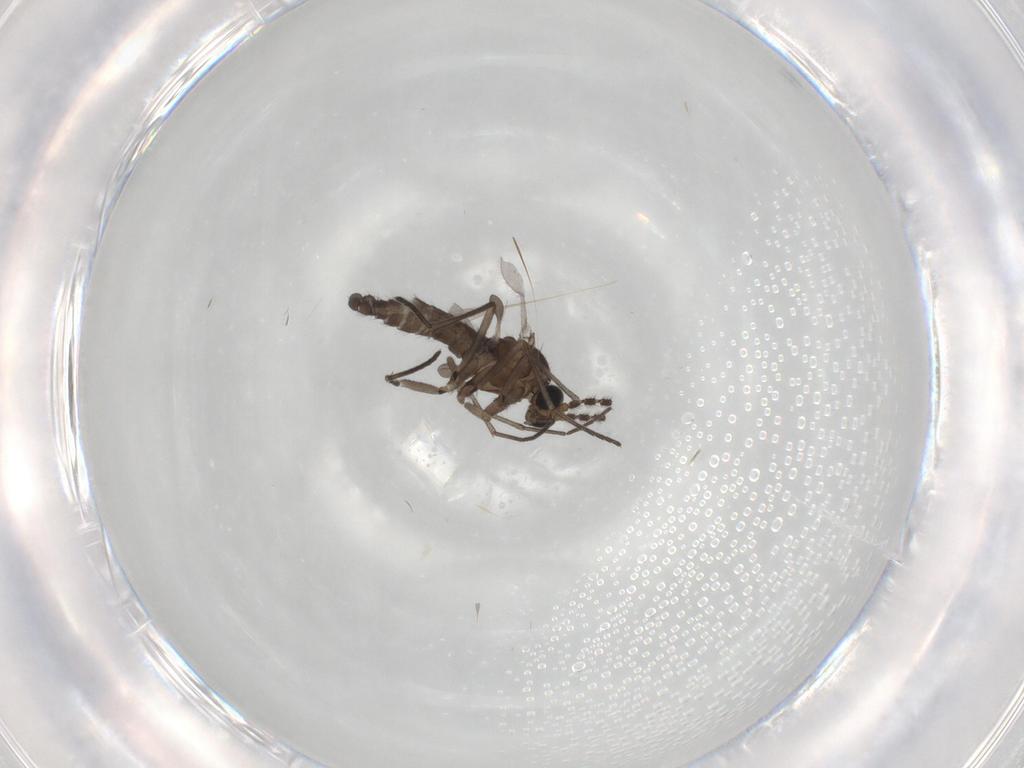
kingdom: Animalia
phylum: Arthropoda
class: Insecta
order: Diptera
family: Sciaridae
